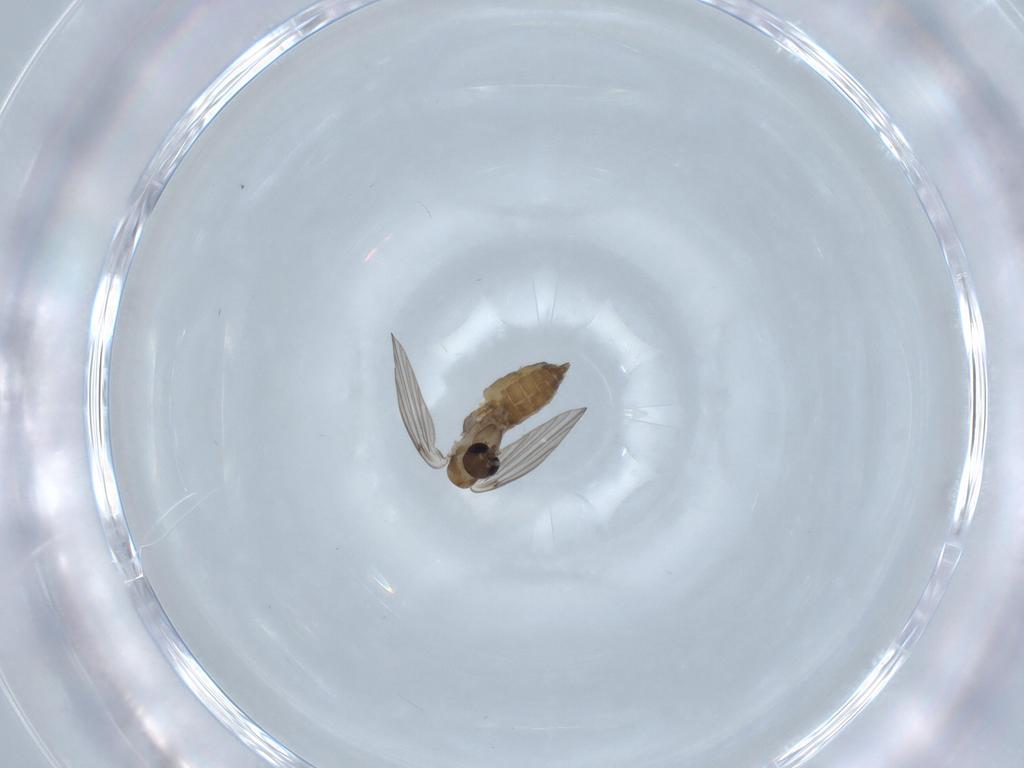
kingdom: Animalia
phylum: Arthropoda
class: Insecta
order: Diptera
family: Psychodidae
